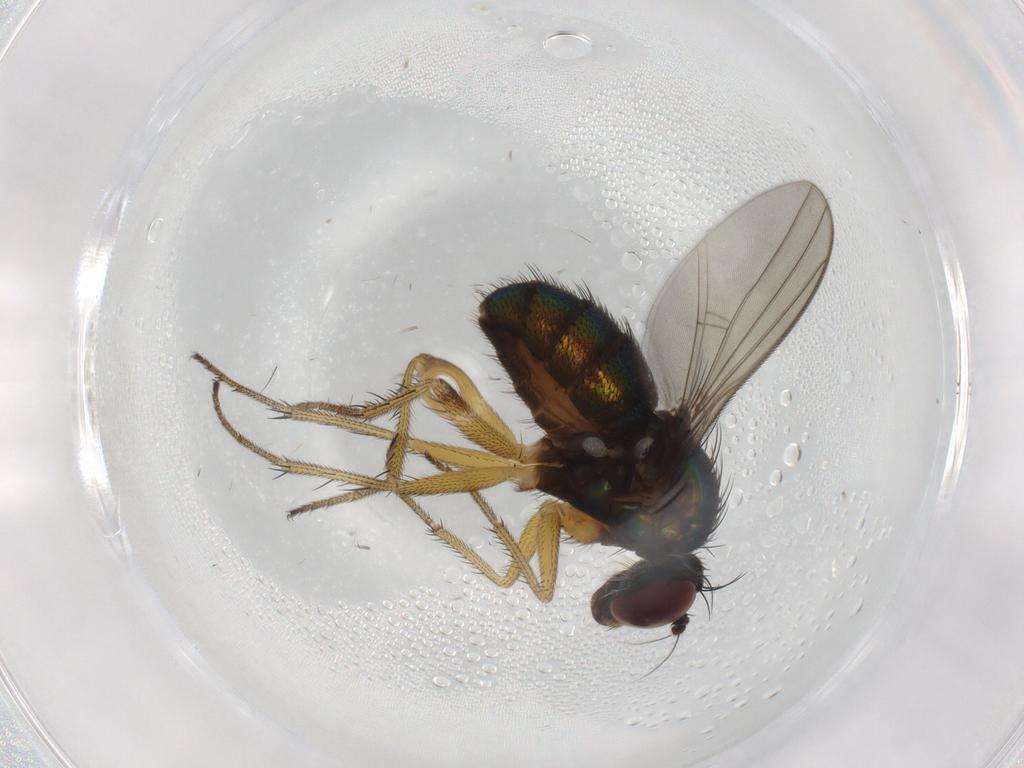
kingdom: Animalia
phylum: Arthropoda
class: Insecta
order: Diptera
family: Dolichopodidae
